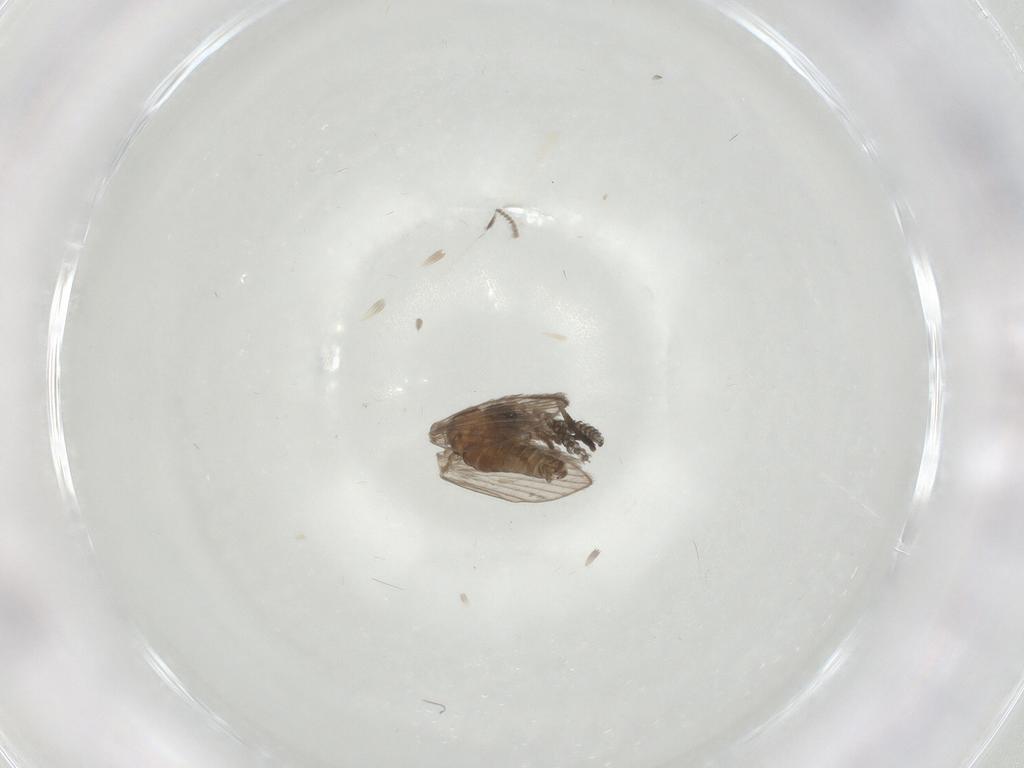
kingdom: Animalia
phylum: Arthropoda
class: Insecta
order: Diptera
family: Psychodidae
